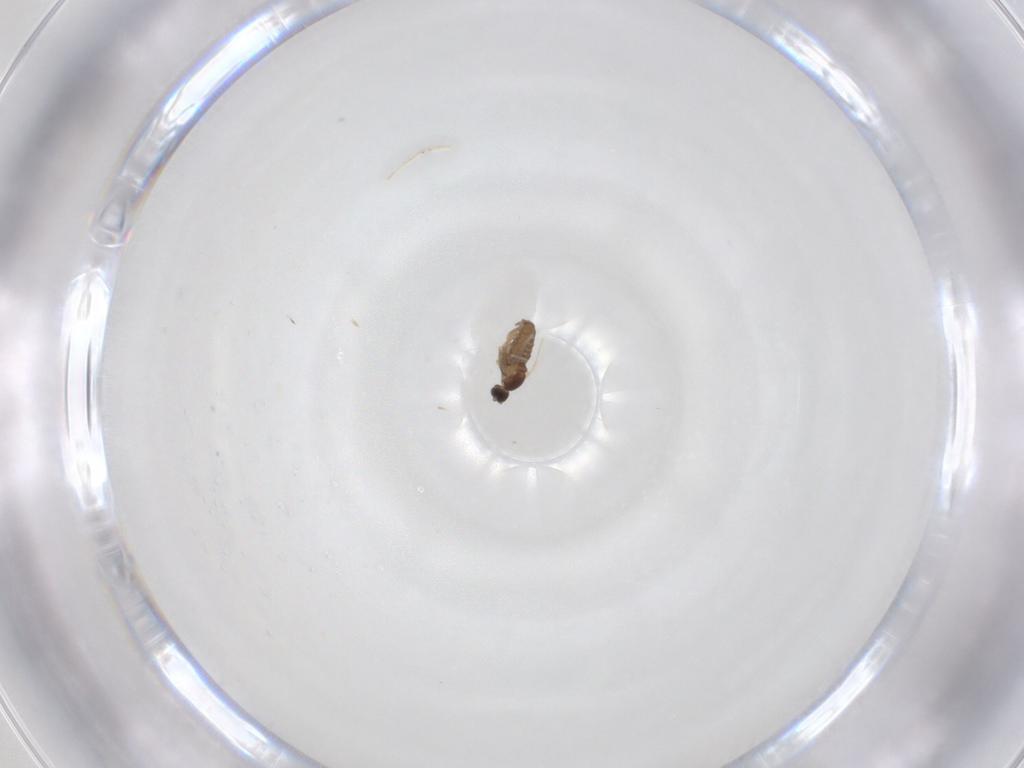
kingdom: Animalia
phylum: Arthropoda
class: Insecta
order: Diptera
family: Cecidomyiidae
